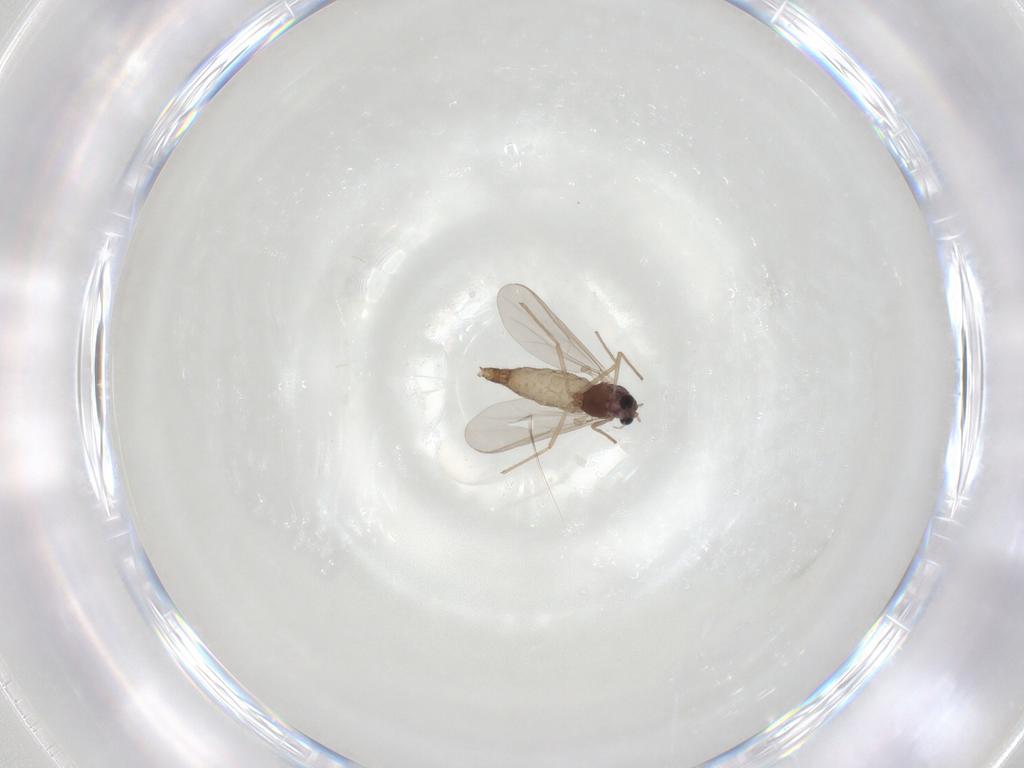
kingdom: Animalia
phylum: Arthropoda
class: Insecta
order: Diptera
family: Chironomidae
